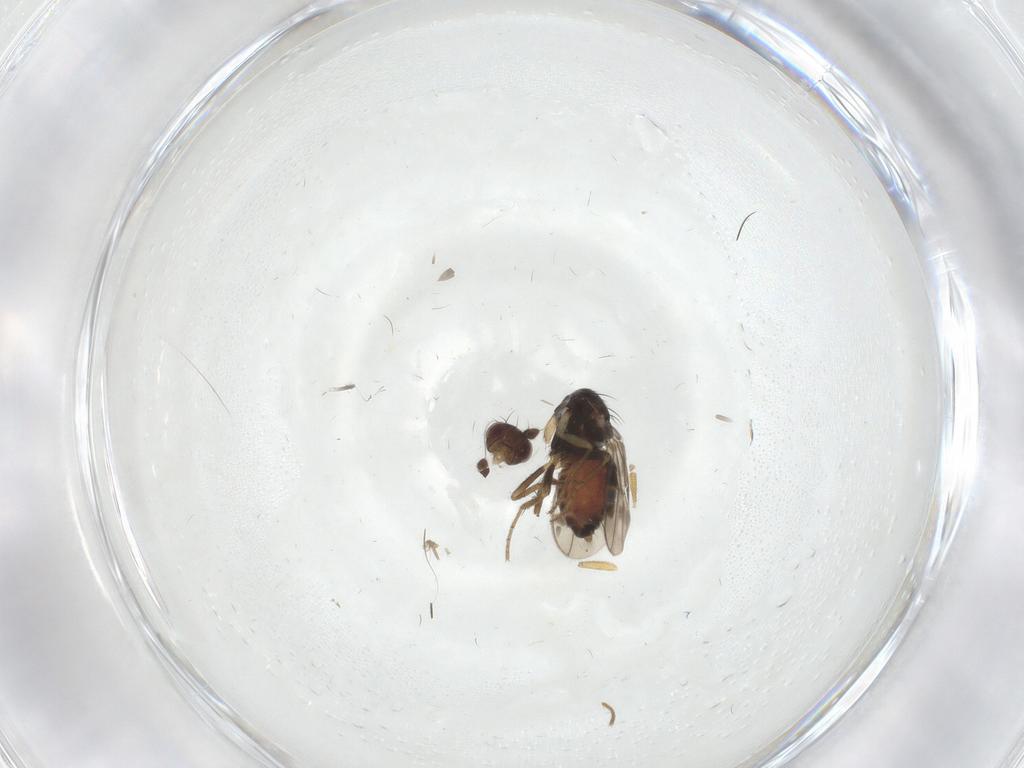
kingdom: Animalia
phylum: Arthropoda
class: Insecta
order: Diptera
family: Sphaeroceridae
